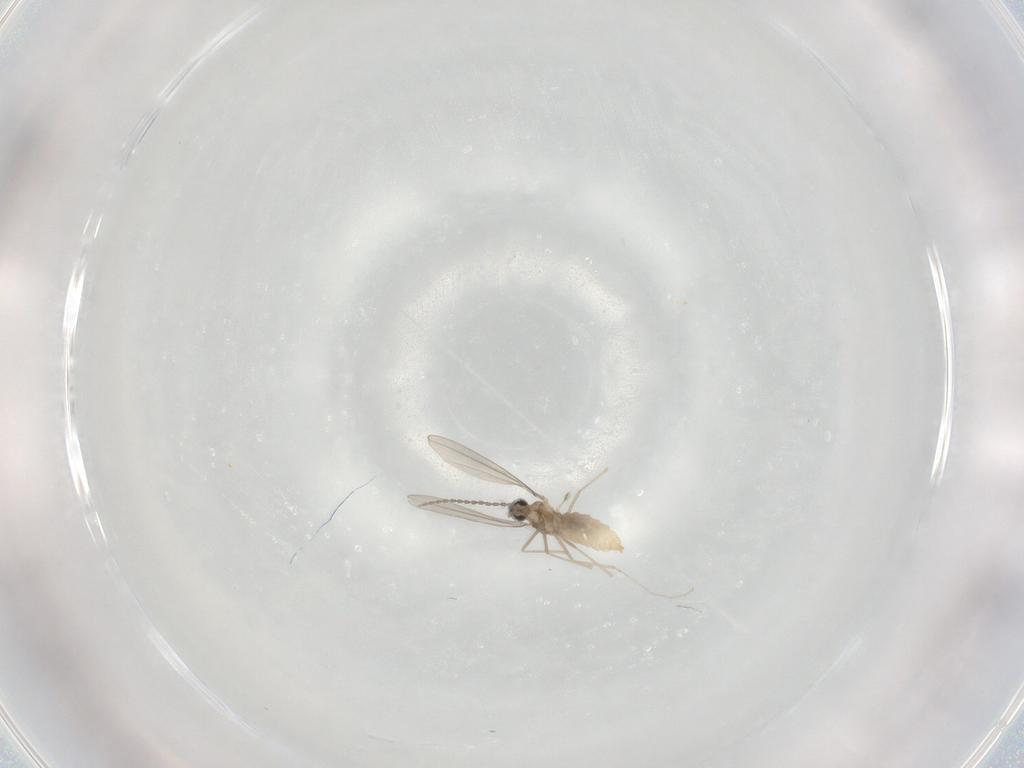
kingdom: Animalia
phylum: Arthropoda
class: Insecta
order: Diptera
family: Cecidomyiidae
